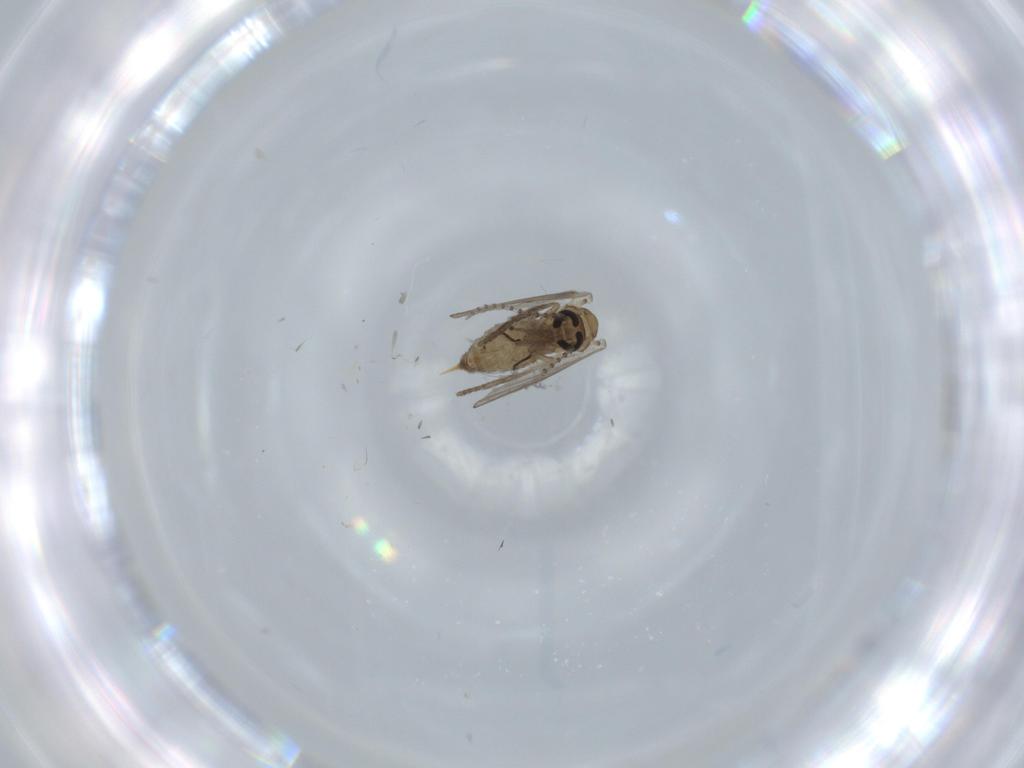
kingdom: Animalia
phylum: Arthropoda
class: Insecta
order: Diptera
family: Psychodidae
